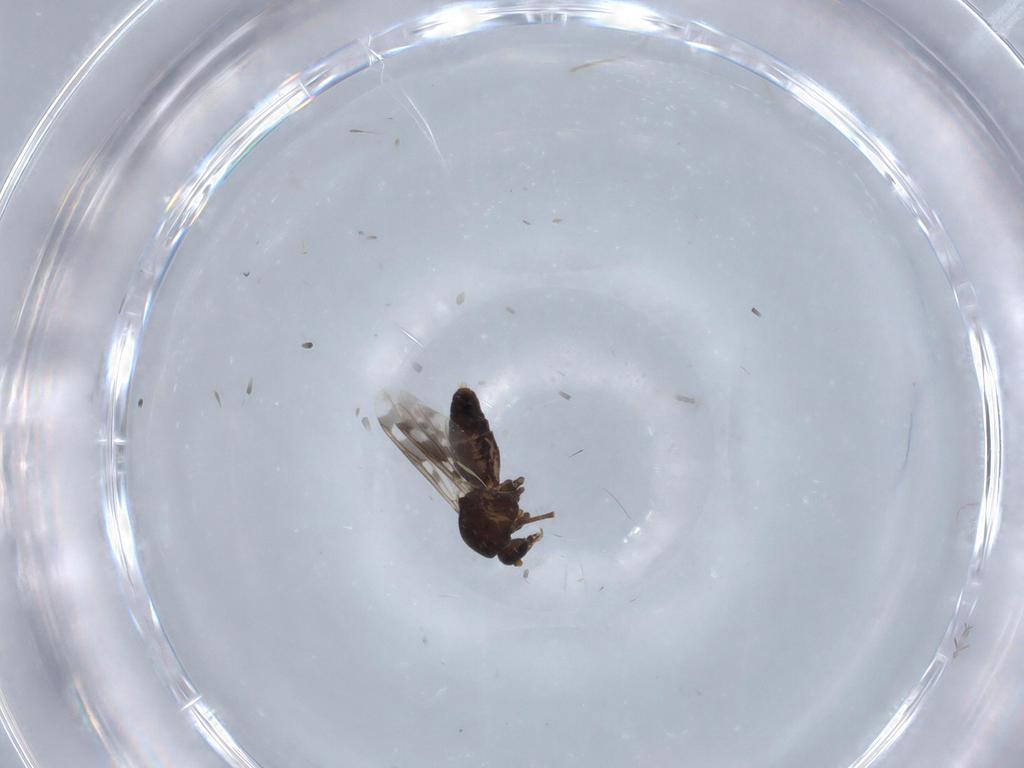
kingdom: Animalia
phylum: Arthropoda
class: Insecta
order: Diptera
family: Ceratopogonidae
